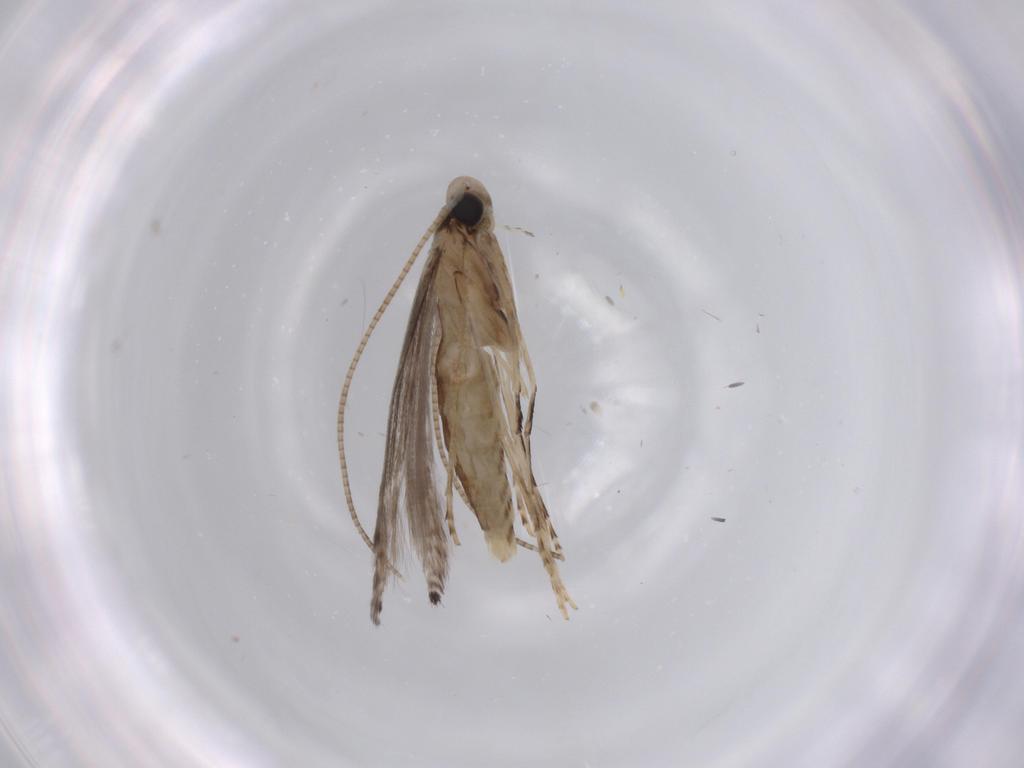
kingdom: Animalia
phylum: Arthropoda
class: Insecta
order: Lepidoptera
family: Gracillariidae
